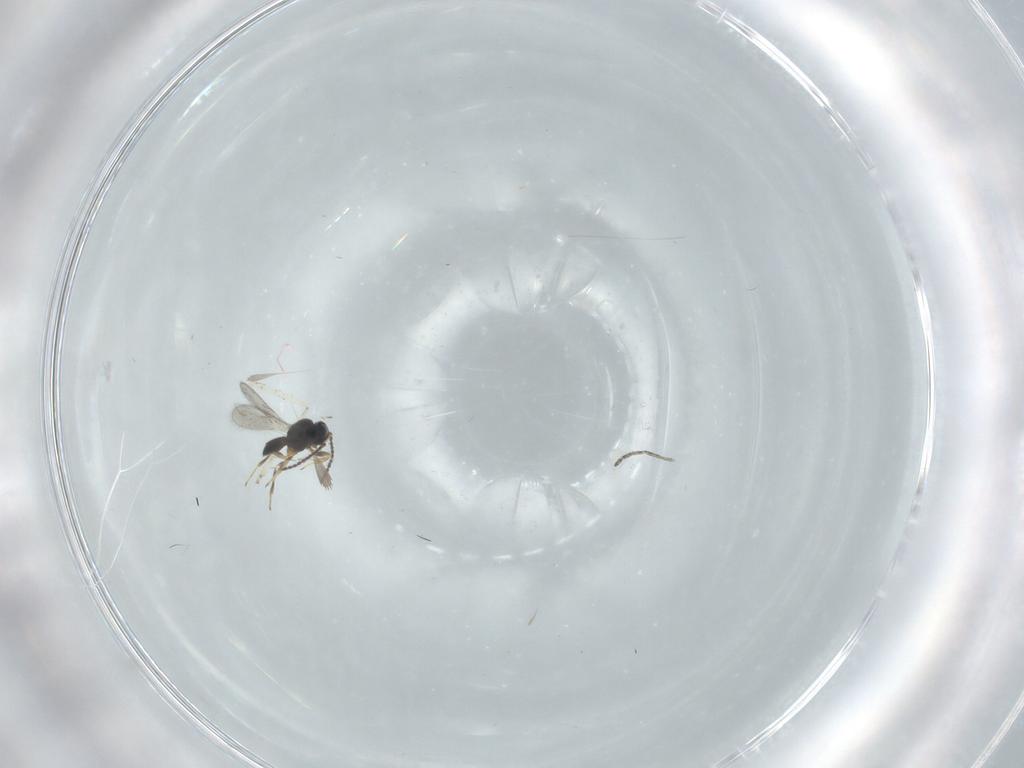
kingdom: Animalia
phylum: Arthropoda
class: Insecta
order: Hymenoptera
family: Scelionidae
